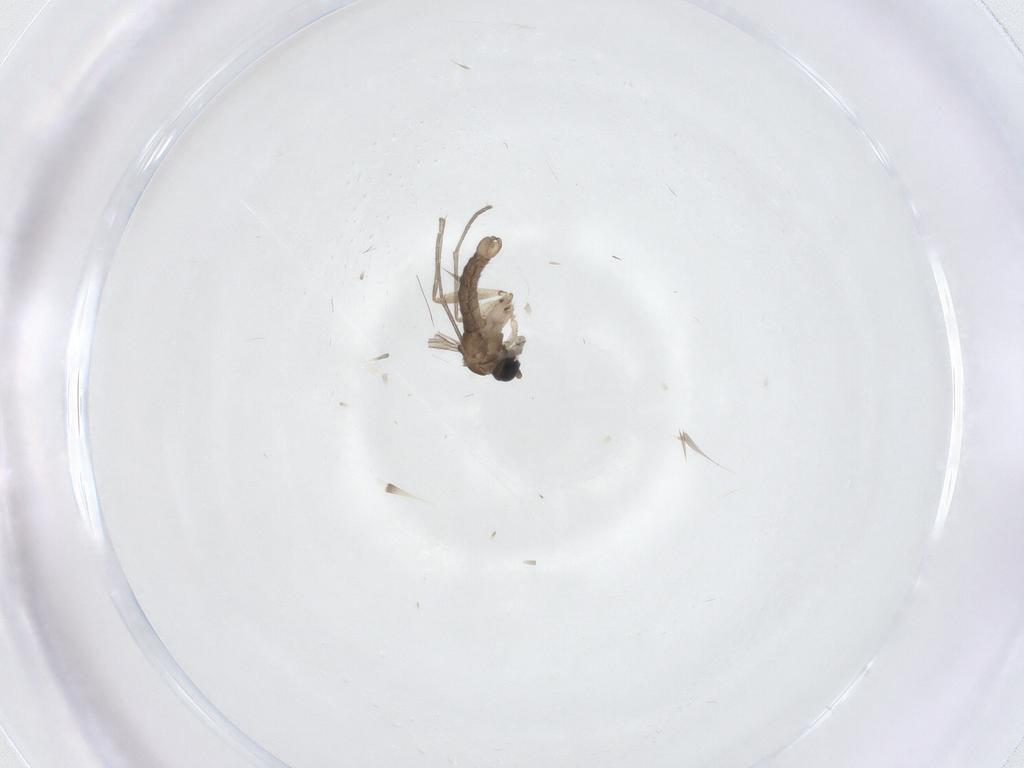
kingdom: Animalia
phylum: Arthropoda
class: Insecta
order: Diptera
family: Sciaridae
